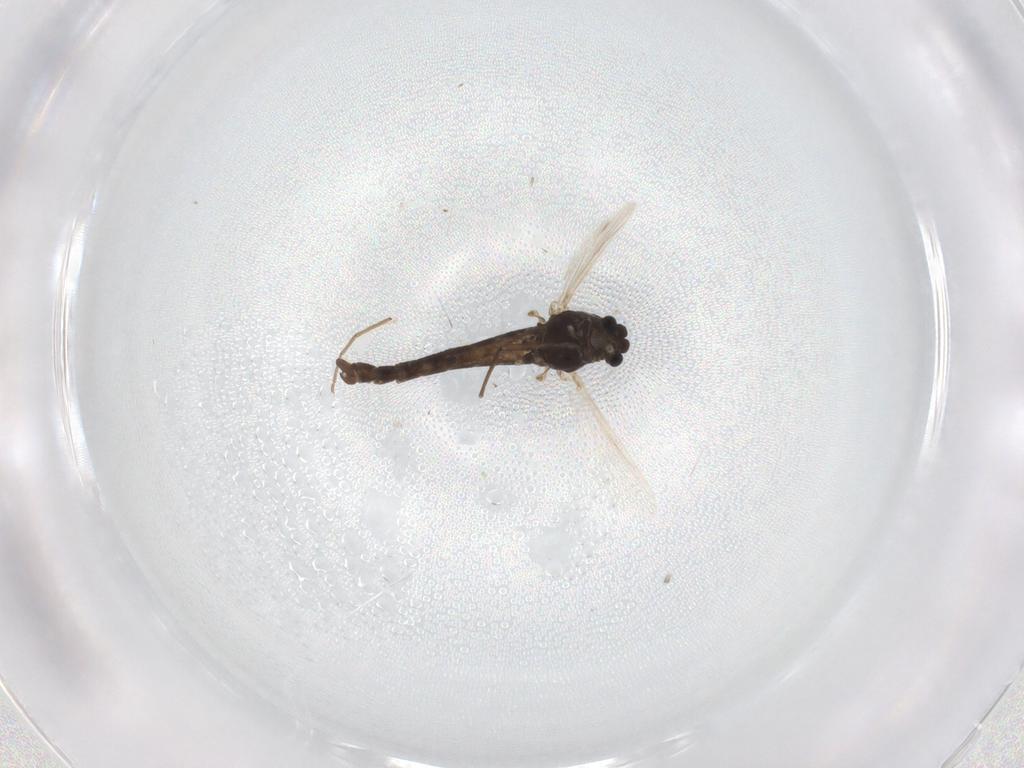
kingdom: Animalia
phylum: Arthropoda
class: Insecta
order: Diptera
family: Chironomidae
